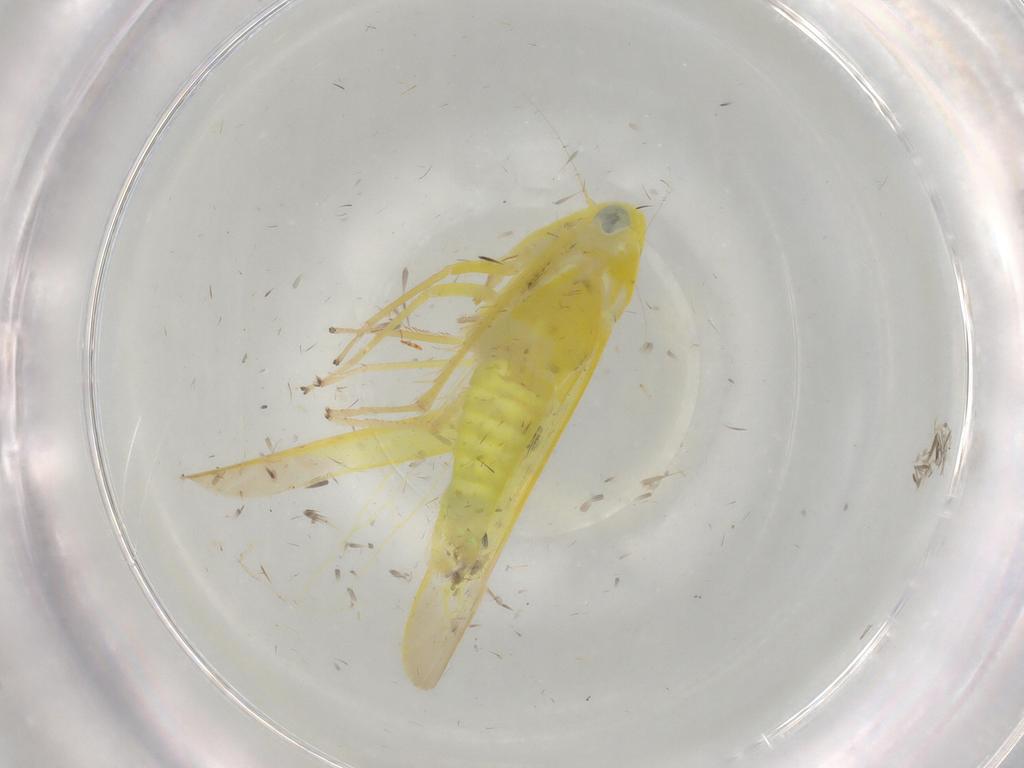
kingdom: Animalia
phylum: Arthropoda
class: Insecta
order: Hemiptera
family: Cicadellidae
